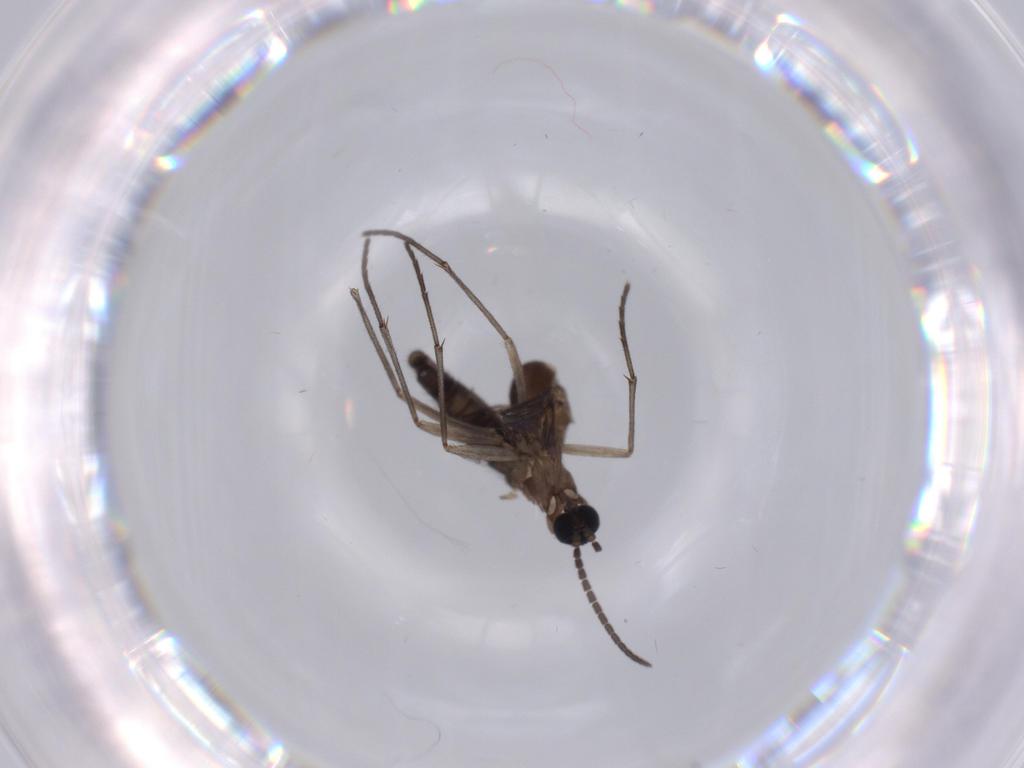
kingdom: Animalia
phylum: Arthropoda
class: Insecta
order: Diptera
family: Sciaridae
